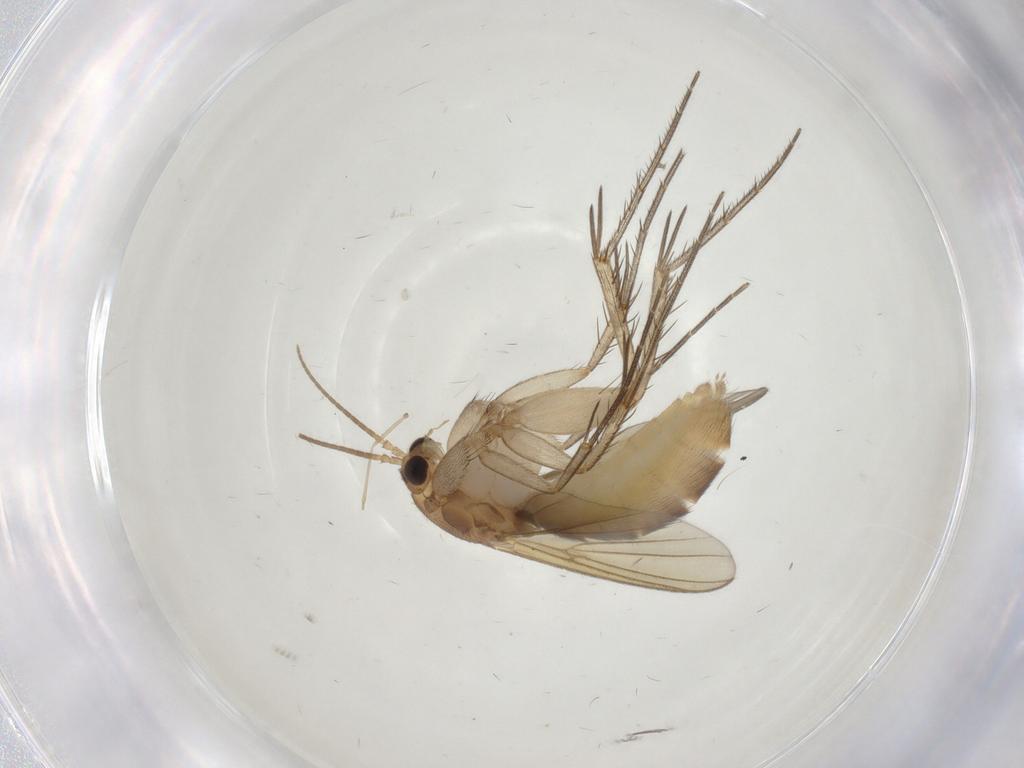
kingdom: Animalia
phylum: Arthropoda
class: Insecta
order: Diptera
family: Mycetophilidae
